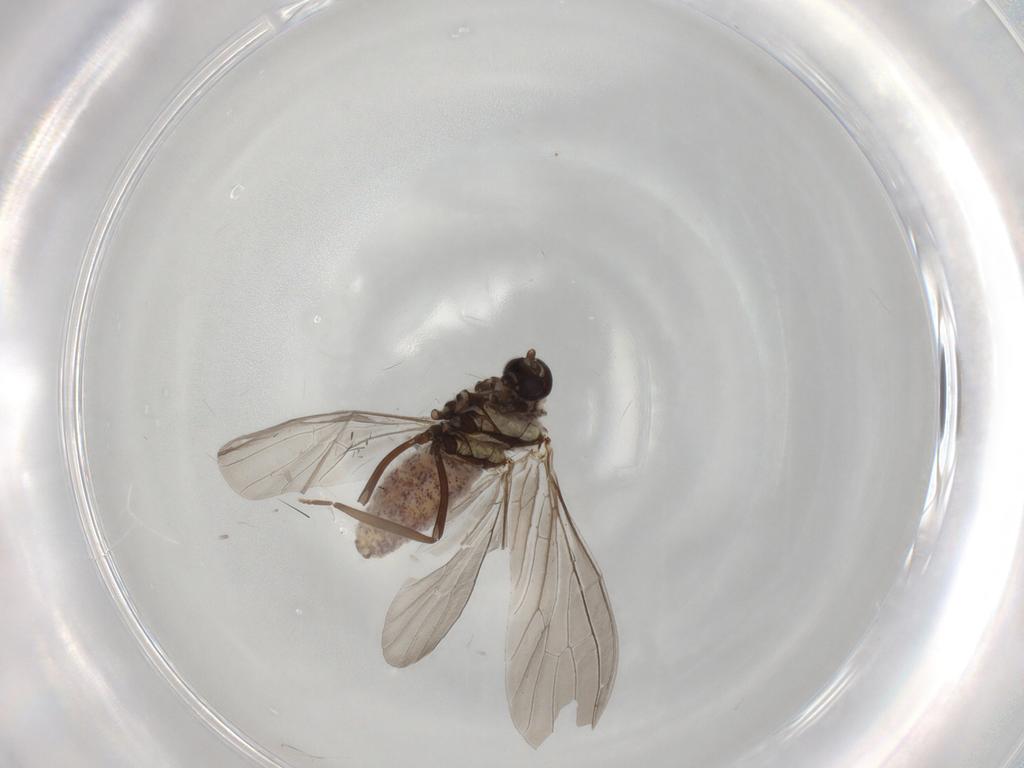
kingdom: Animalia
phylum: Arthropoda
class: Insecta
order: Neuroptera
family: Coniopterygidae
